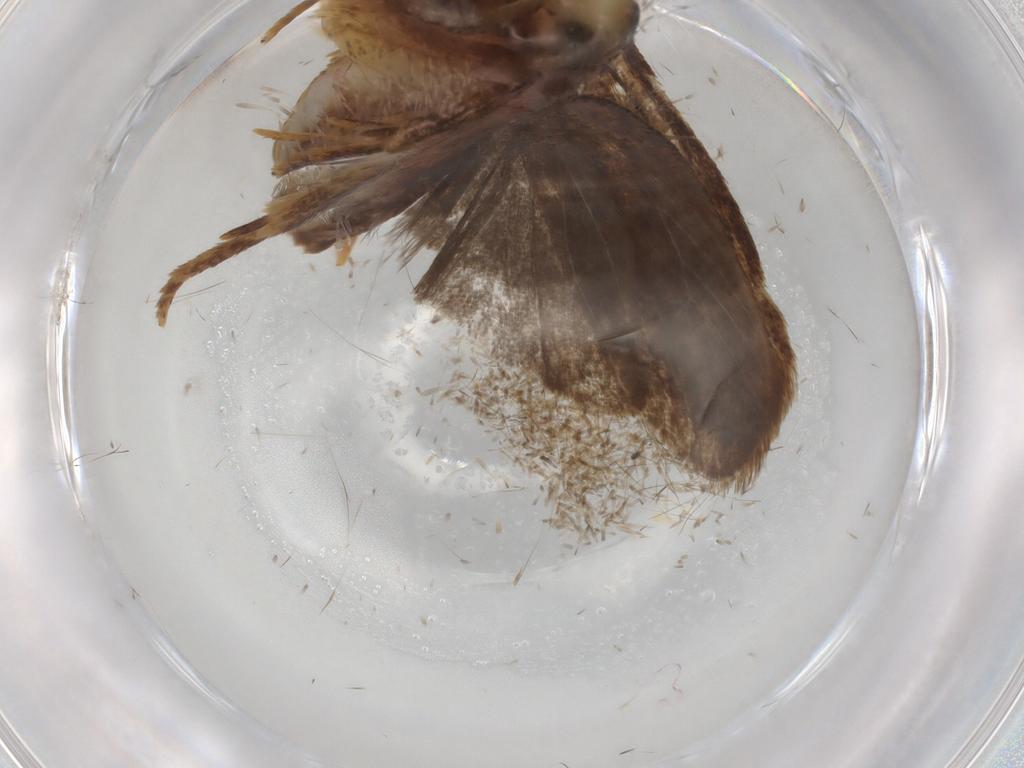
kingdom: Animalia
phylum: Arthropoda
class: Insecta
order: Lepidoptera
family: Autostichidae
